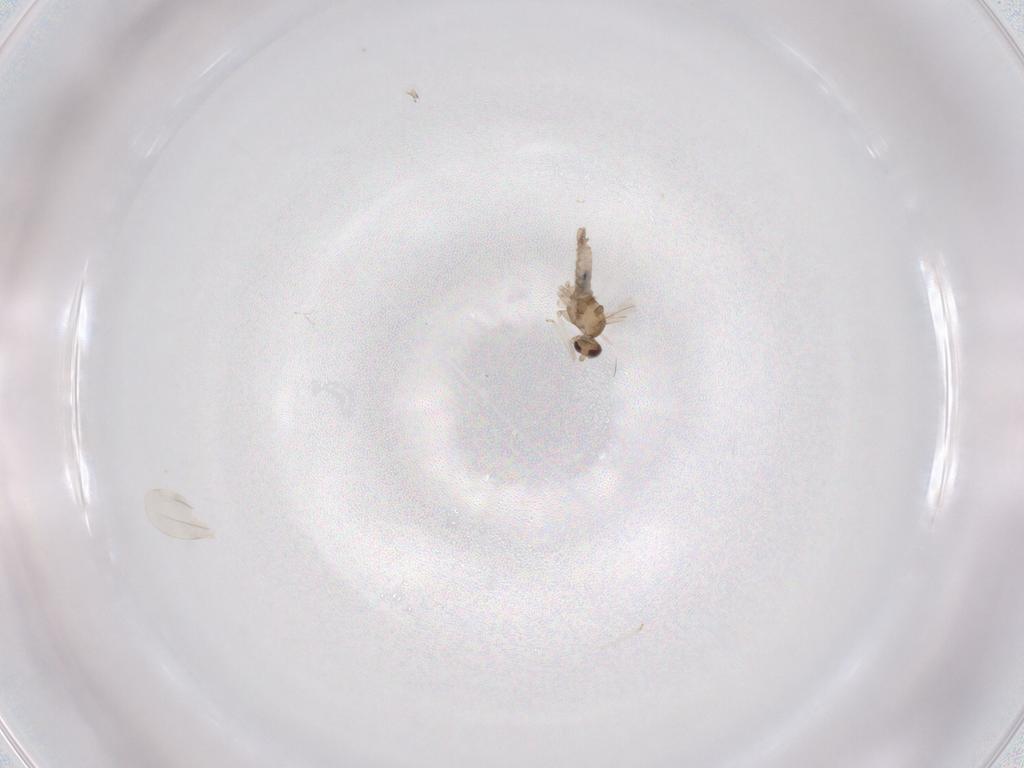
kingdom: Animalia
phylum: Arthropoda
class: Insecta
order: Diptera
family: Cecidomyiidae
